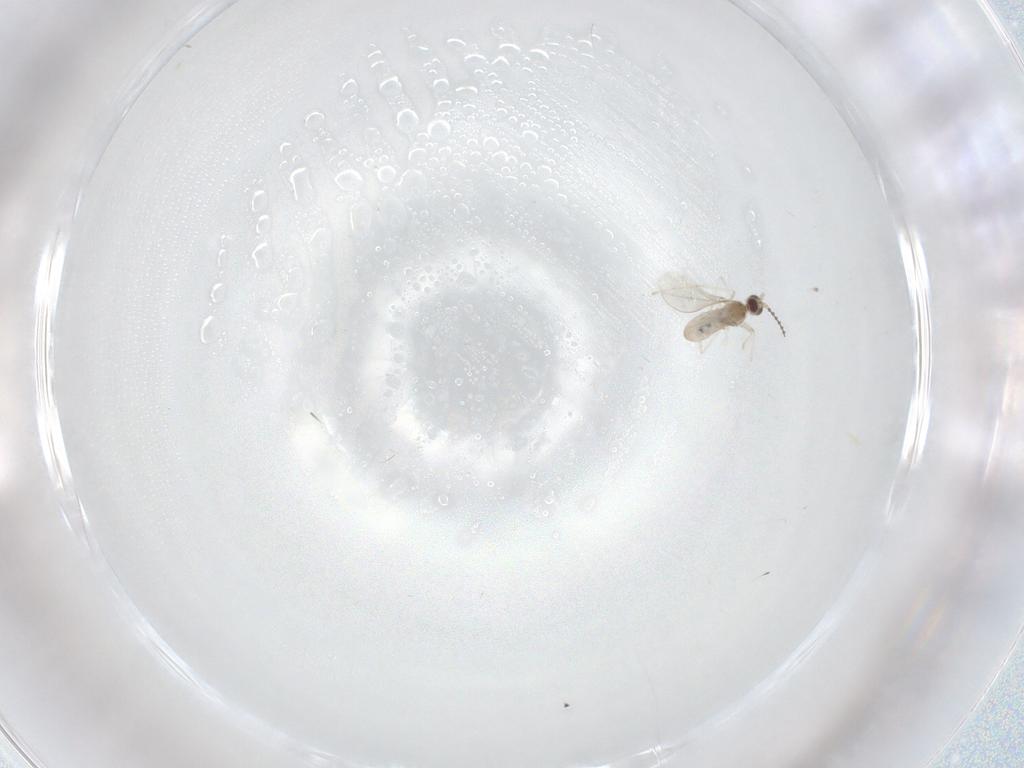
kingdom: Animalia
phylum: Arthropoda
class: Insecta
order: Diptera
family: Cecidomyiidae
